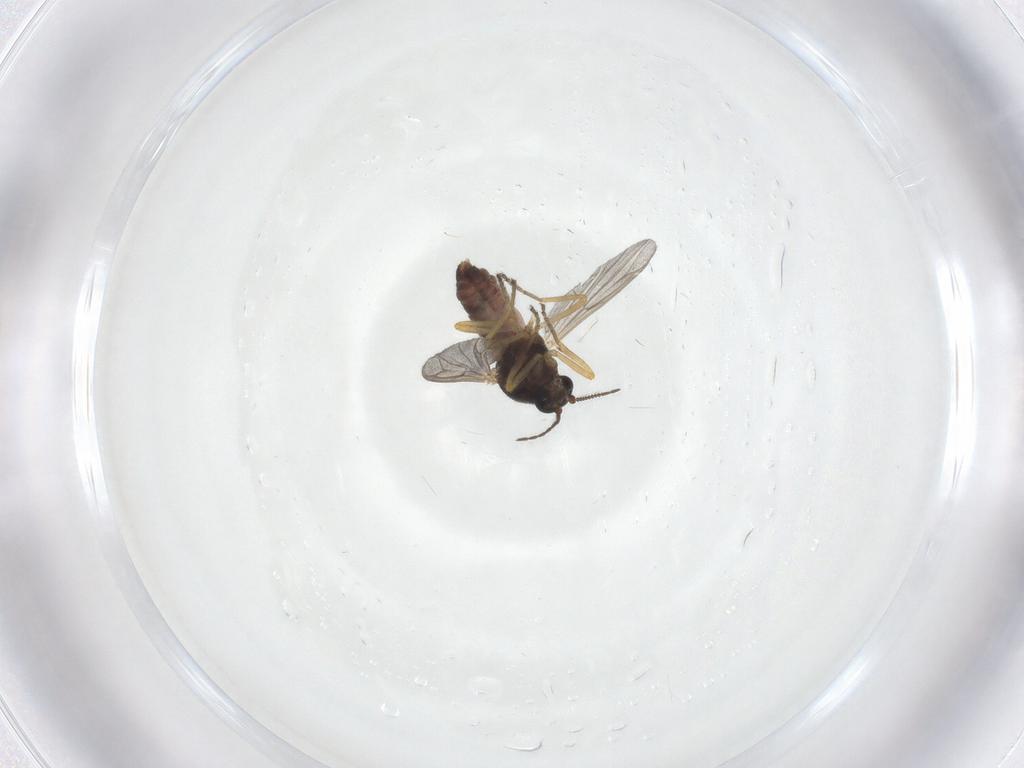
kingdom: Animalia
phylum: Arthropoda
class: Insecta
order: Diptera
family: Ceratopogonidae
